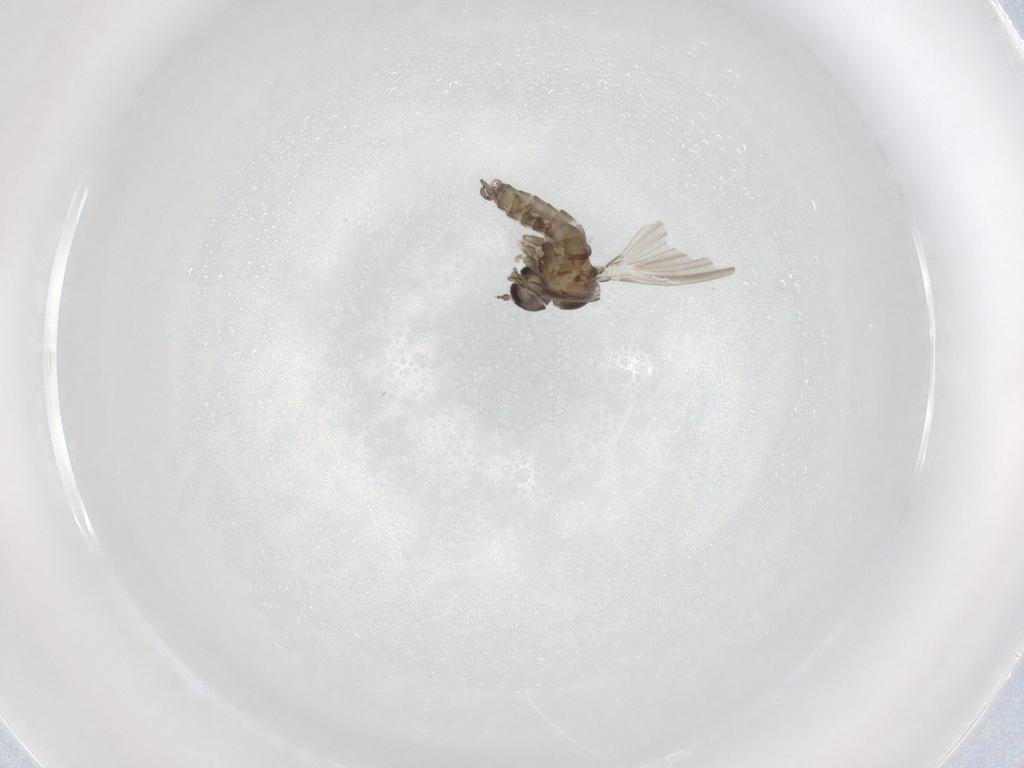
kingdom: Animalia
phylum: Arthropoda
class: Insecta
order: Diptera
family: Psychodidae
